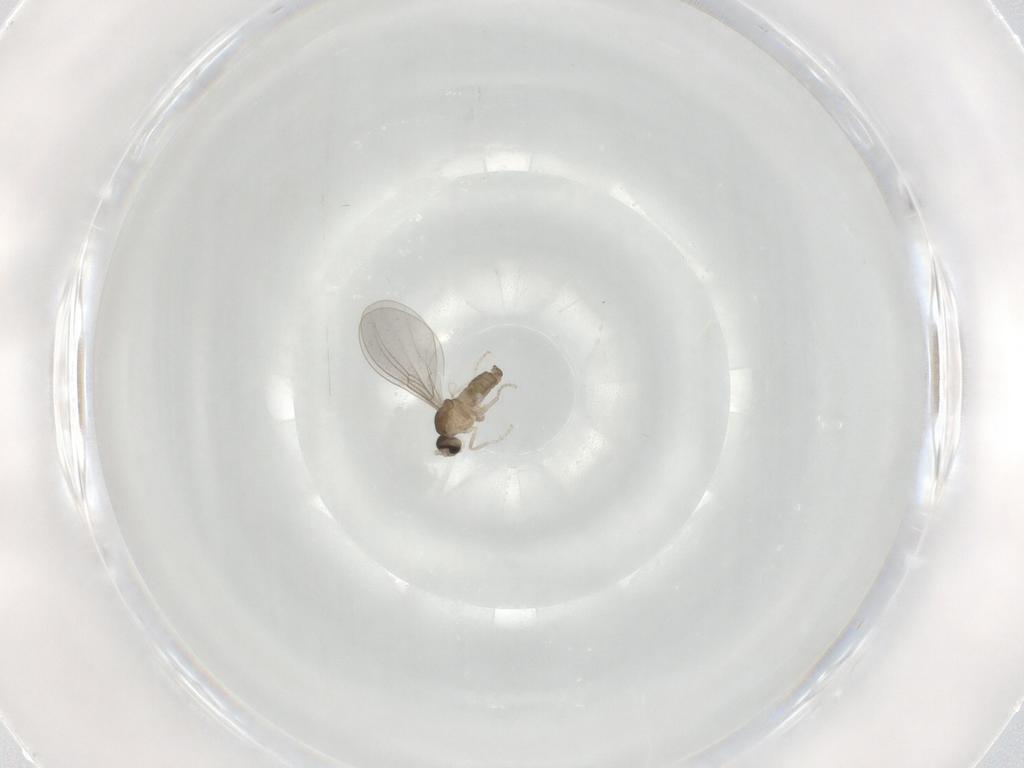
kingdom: Animalia
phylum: Arthropoda
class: Insecta
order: Diptera
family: Cecidomyiidae
